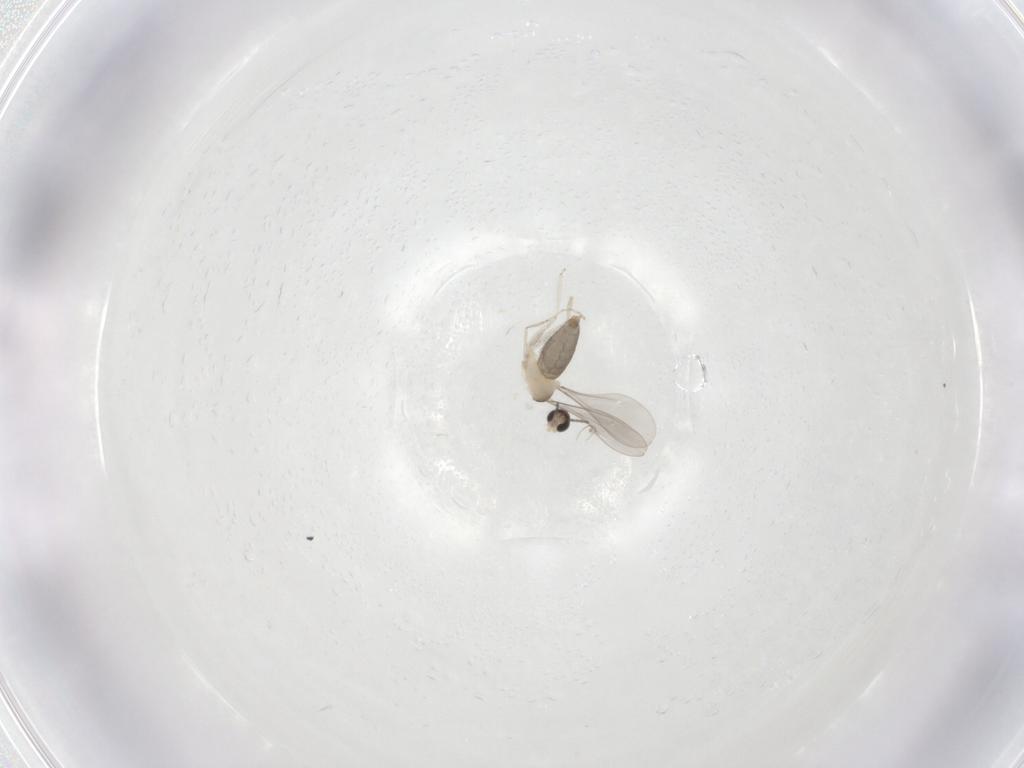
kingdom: Animalia
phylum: Arthropoda
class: Insecta
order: Diptera
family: Cecidomyiidae
